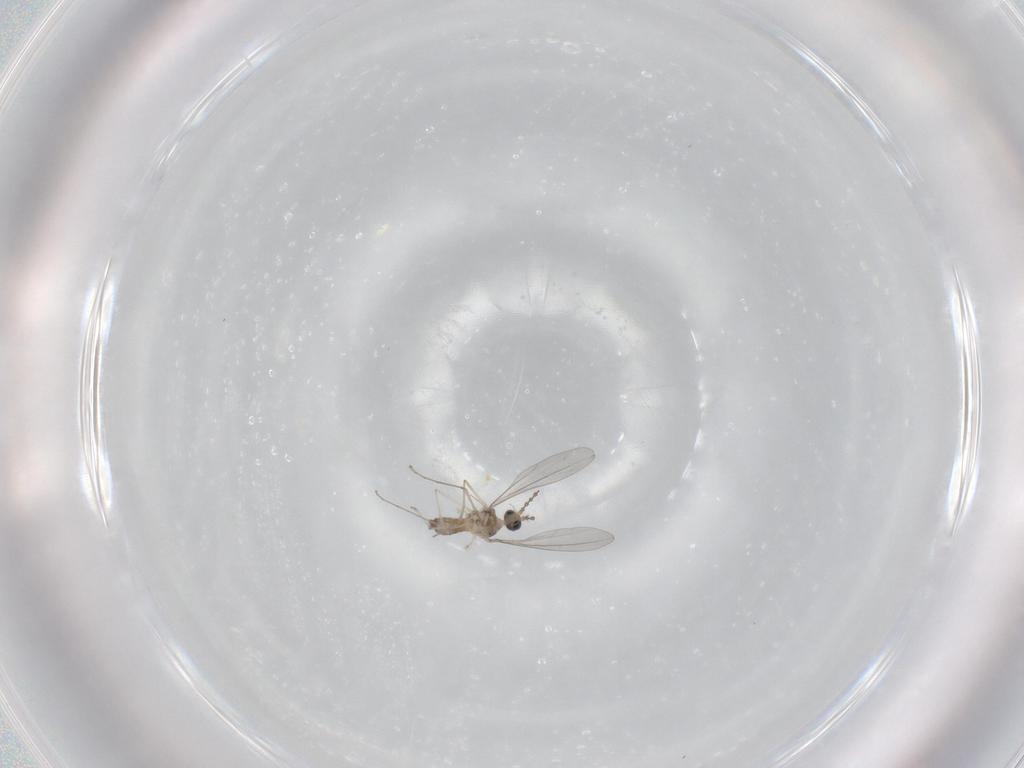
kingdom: Animalia
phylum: Arthropoda
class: Insecta
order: Diptera
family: Cecidomyiidae
